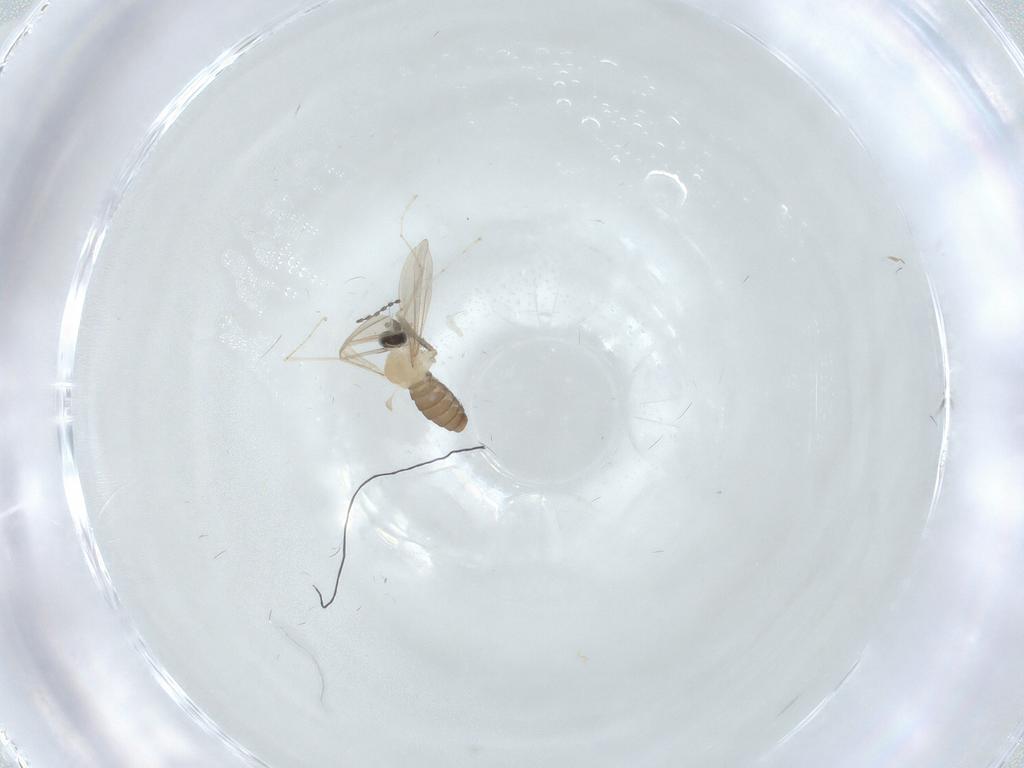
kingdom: Animalia
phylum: Arthropoda
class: Insecta
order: Diptera
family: Cecidomyiidae
